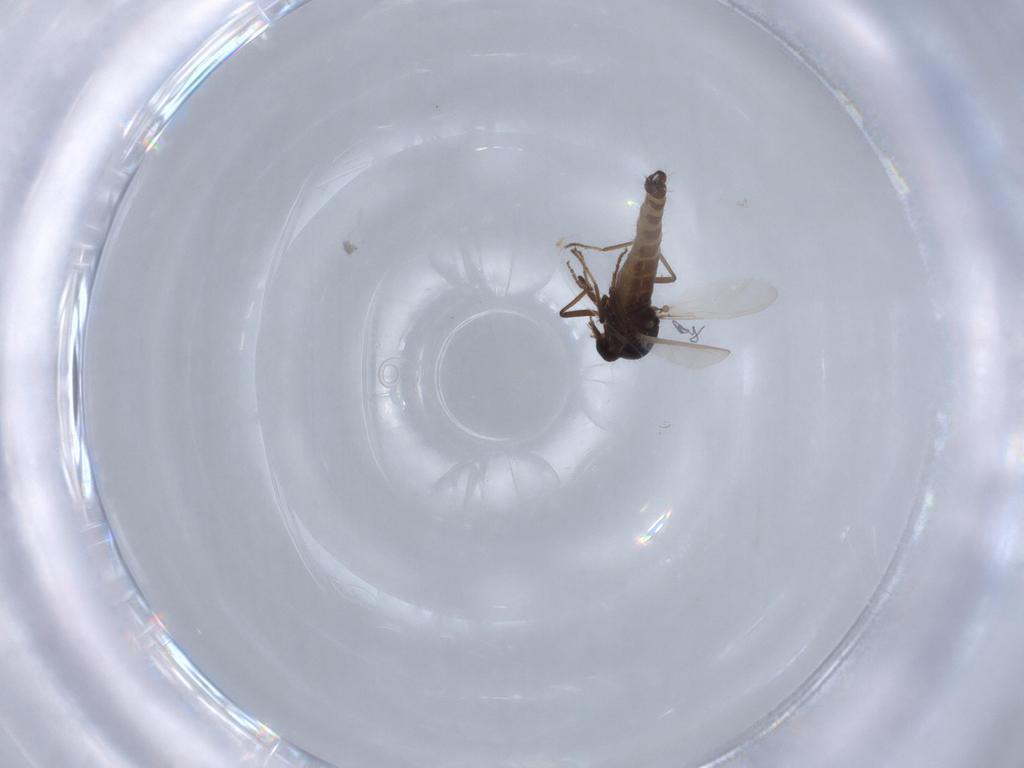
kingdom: Animalia
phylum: Arthropoda
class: Insecta
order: Diptera
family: Ceratopogonidae
